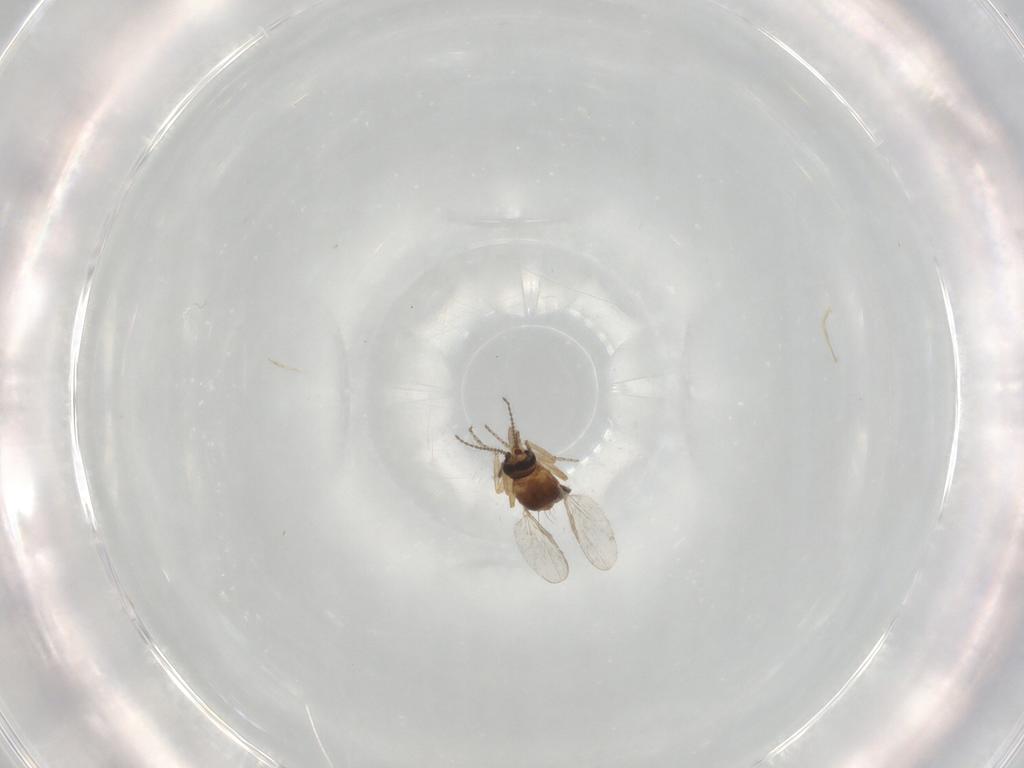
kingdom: Animalia
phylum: Arthropoda
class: Insecta
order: Diptera
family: Ceratopogonidae
